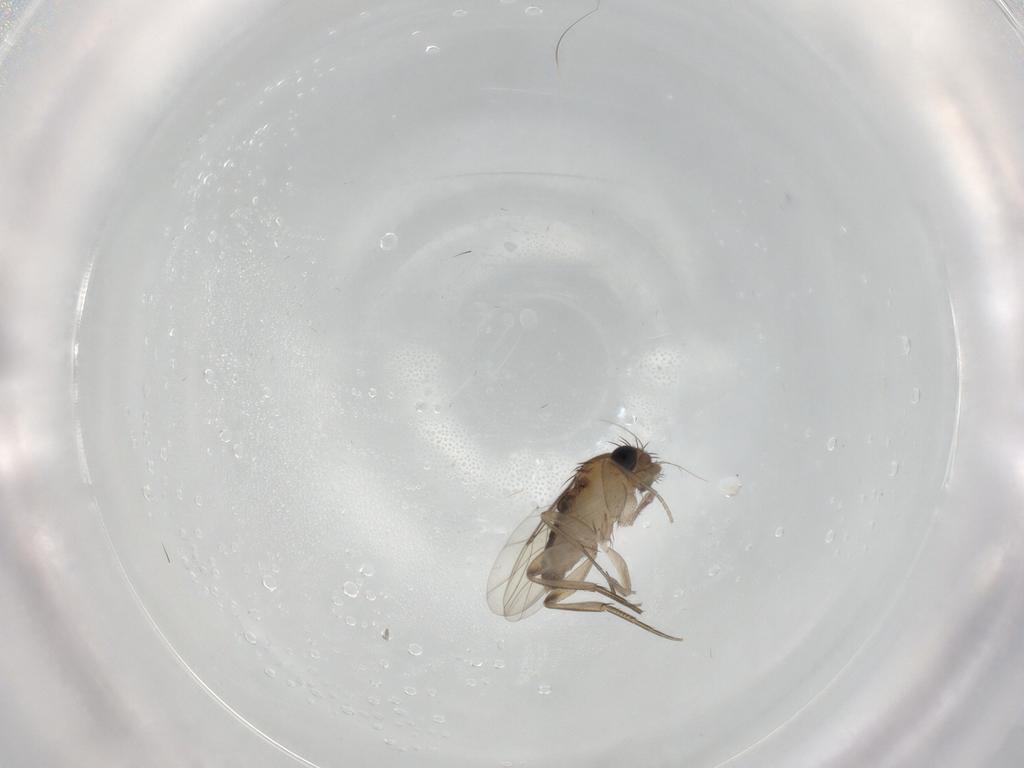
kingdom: Animalia
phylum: Arthropoda
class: Insecta
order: Diptera
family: Phoridae
